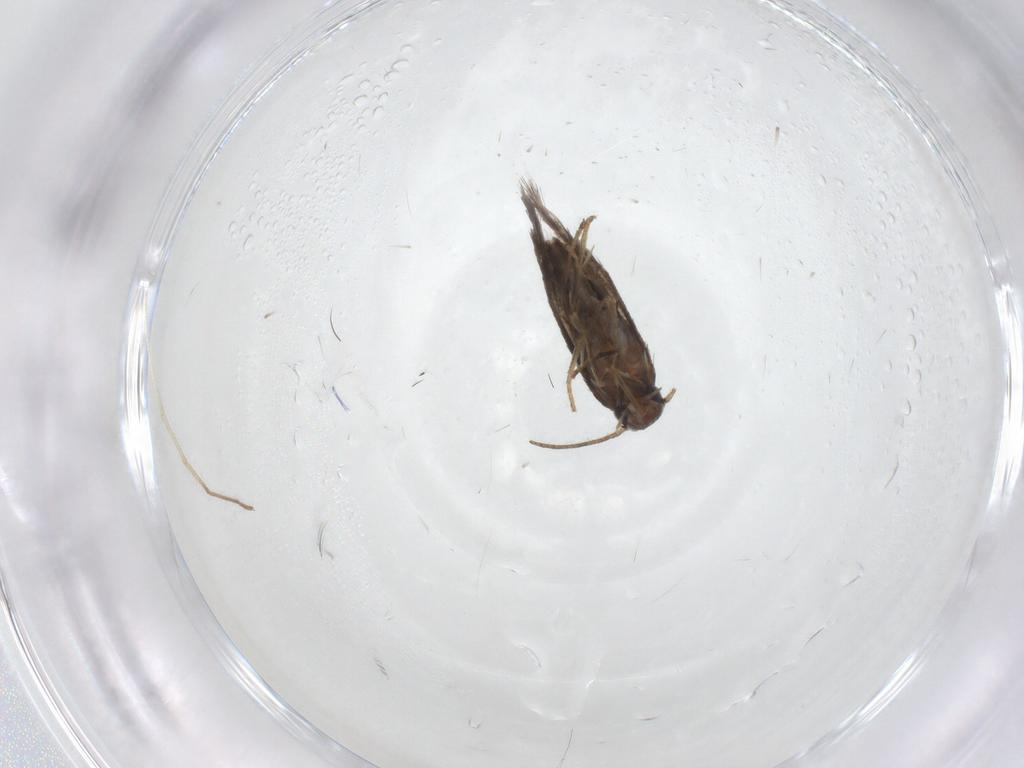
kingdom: Animalia
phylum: Arthropoda
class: Insecta
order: Lepidoptera
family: Heliozelidae
